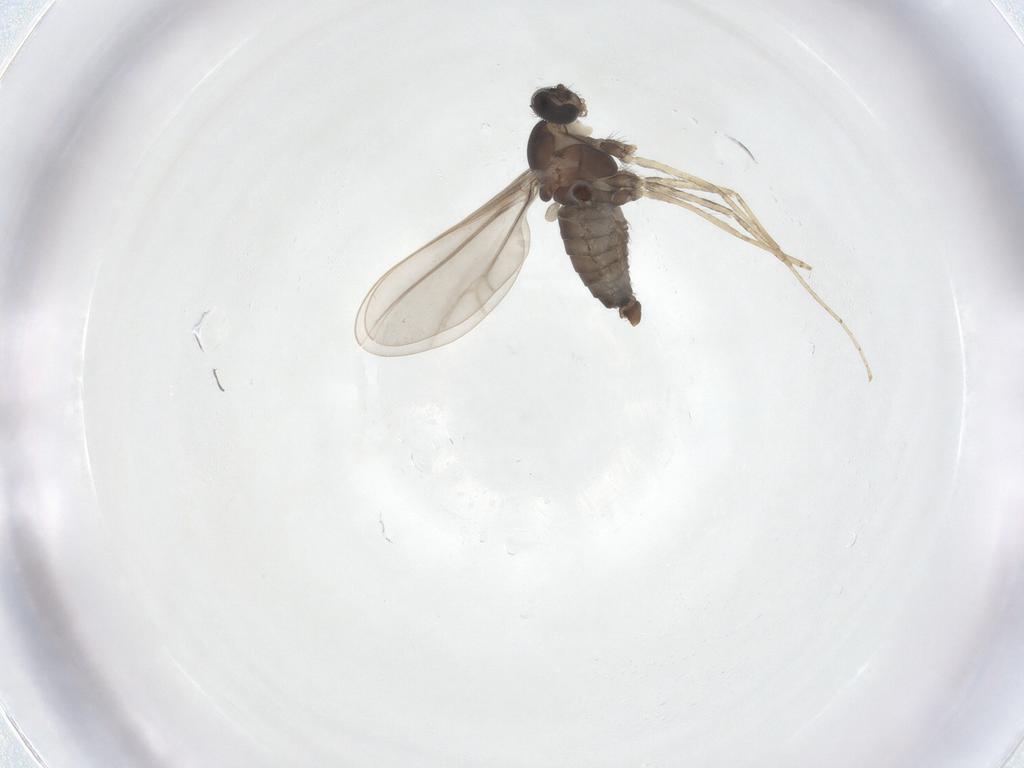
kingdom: Animalia
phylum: Arthropoda
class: Insecta
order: Diptera
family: Cecidomyiidae
